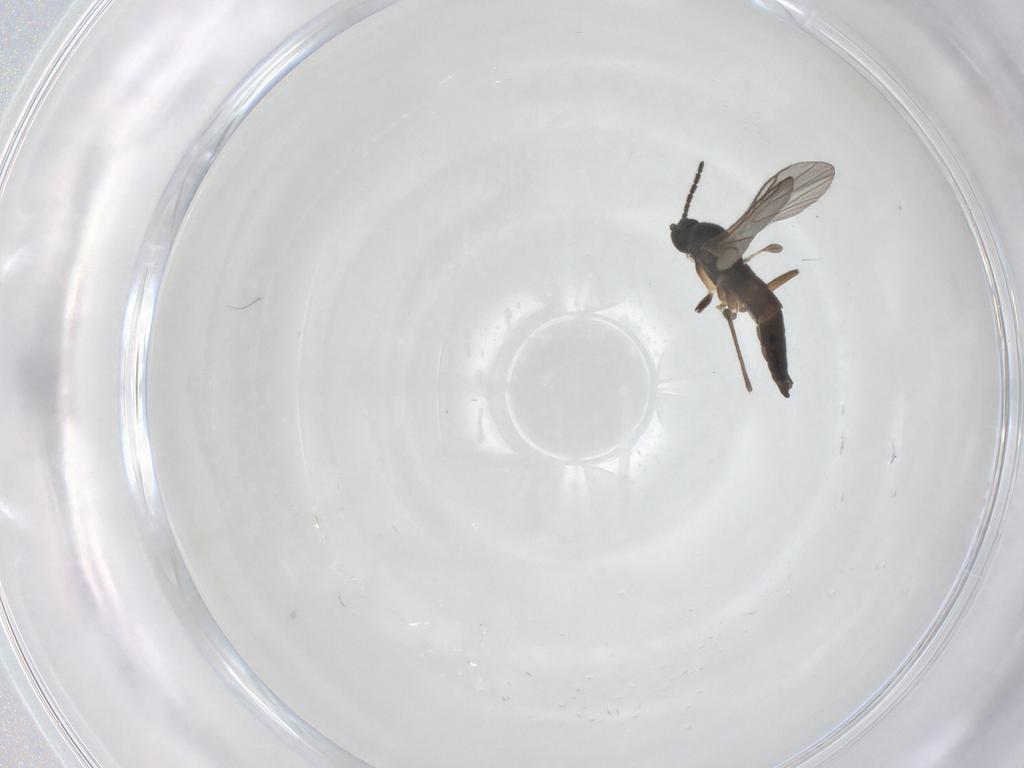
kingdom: Animalia
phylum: Arthropoda
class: Insecta
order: Diptera
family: Sciaridae
